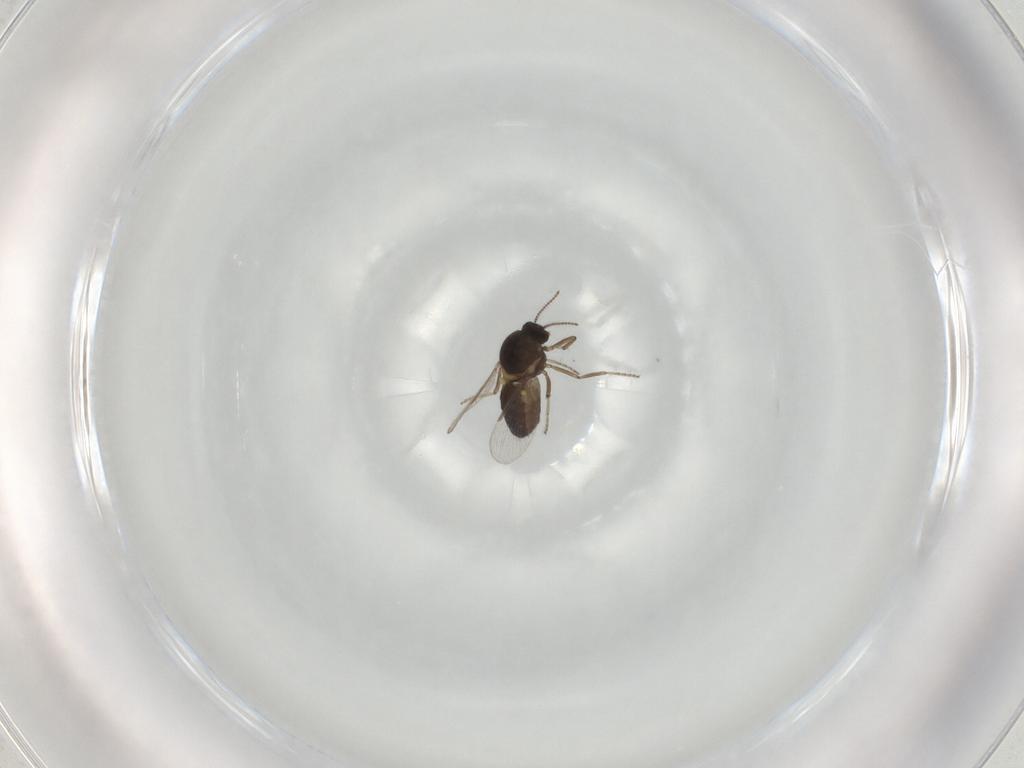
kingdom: Animalia
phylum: Arthropoda
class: Insecta
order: Diptera
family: Ceratopogonidae
